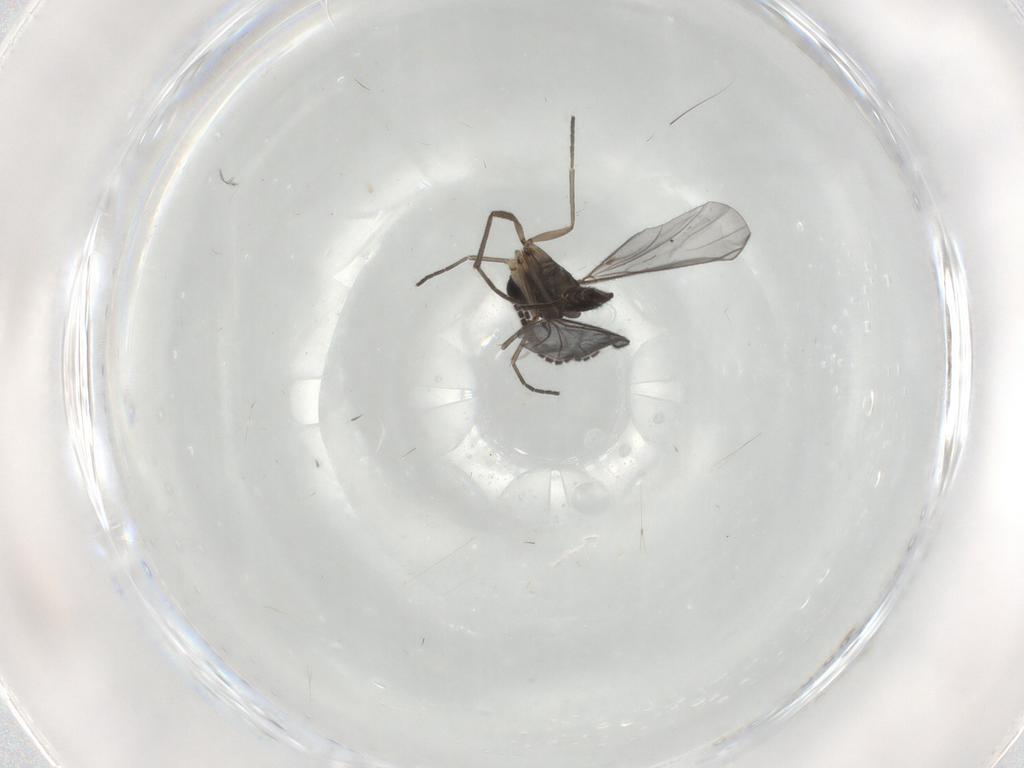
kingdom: Animalia
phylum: Arthropoda
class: Insecta
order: Diptera
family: Sciaridae
